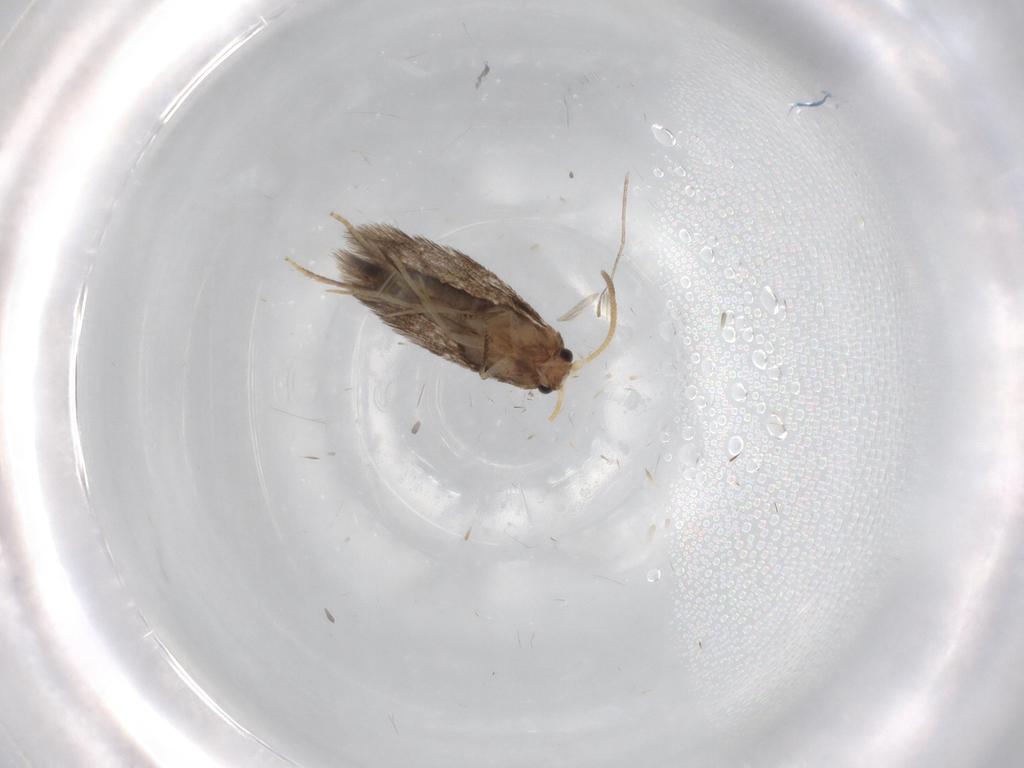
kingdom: Animalia
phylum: Arthropoda
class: Insecta
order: Lepidoptera
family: Nepticulidae
